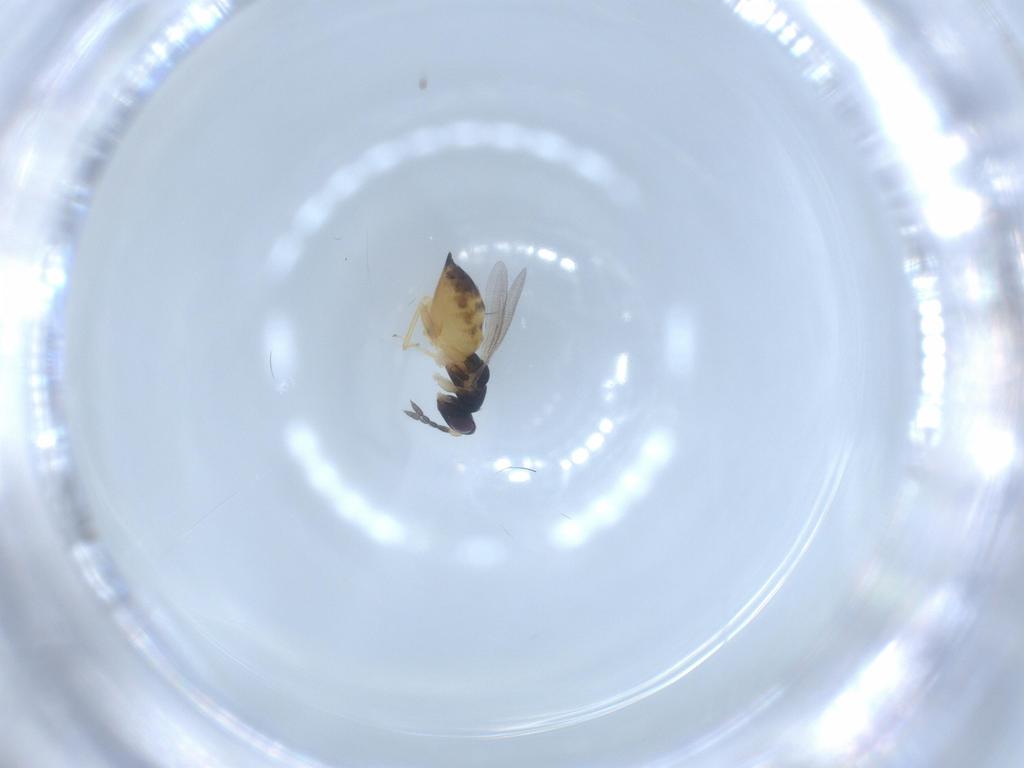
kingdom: Animalia
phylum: Arthropoda
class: Insecta
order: Hymenoptera
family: Eulophidae
